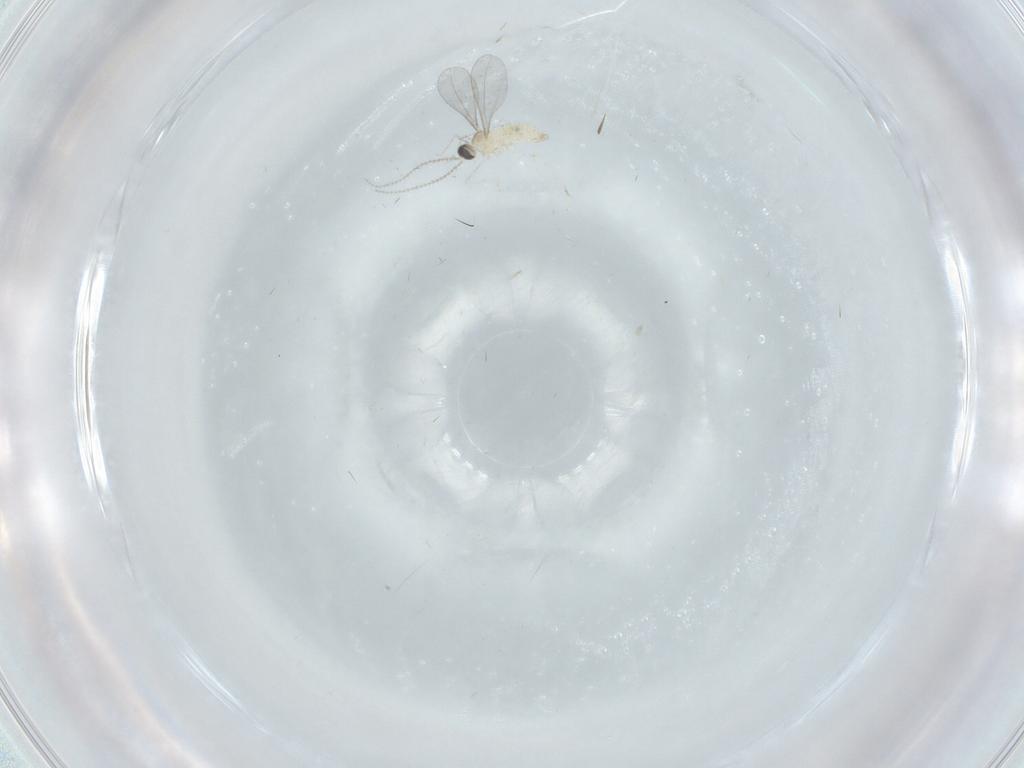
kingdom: Animalia
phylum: Arthropoda
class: Insecta
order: Diptera
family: Cecidomyiidae
